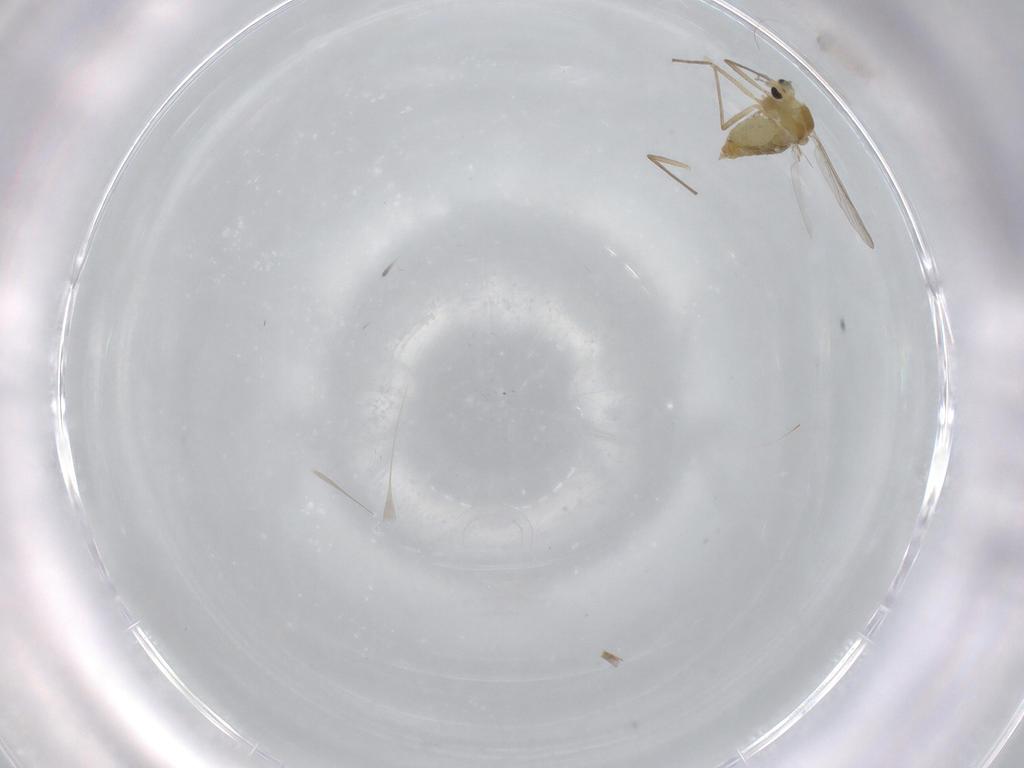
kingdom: Animalia
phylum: Arthropoda
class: Insecta
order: Diptera
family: Chironomidae
